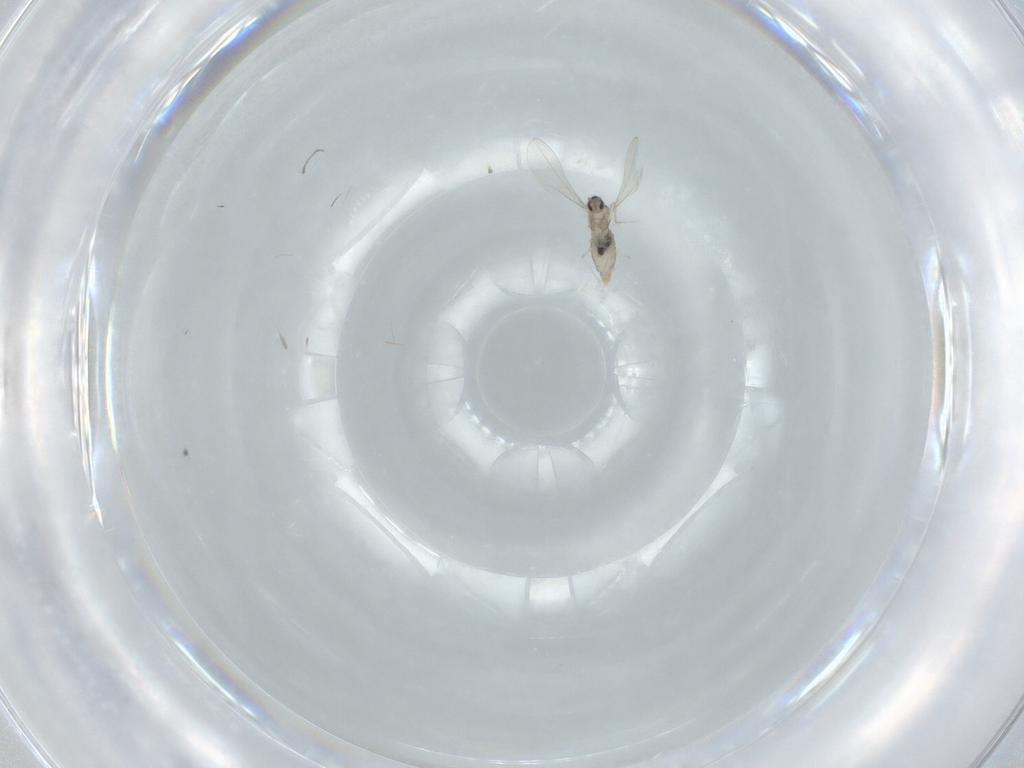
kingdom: Animalia
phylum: Arthropoda
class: Insecta
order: Diptera
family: Cecidomyiidae
